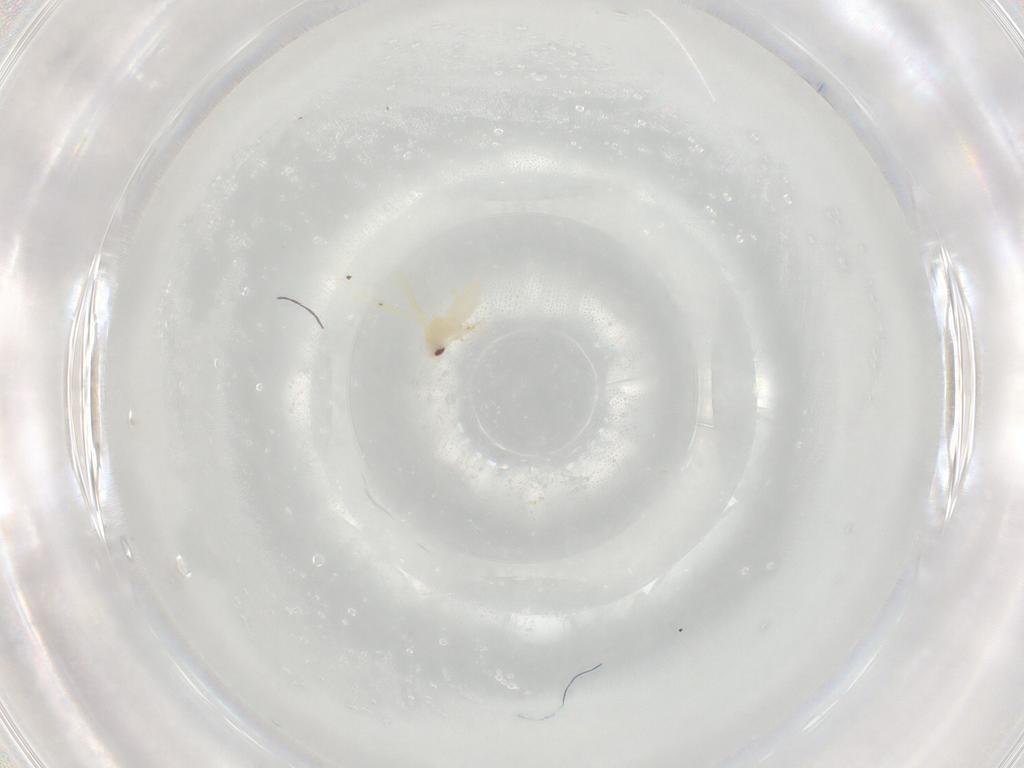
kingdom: Animalia
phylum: Arthropoda
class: Insecta
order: Hemiptera
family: Aleyrodidae
